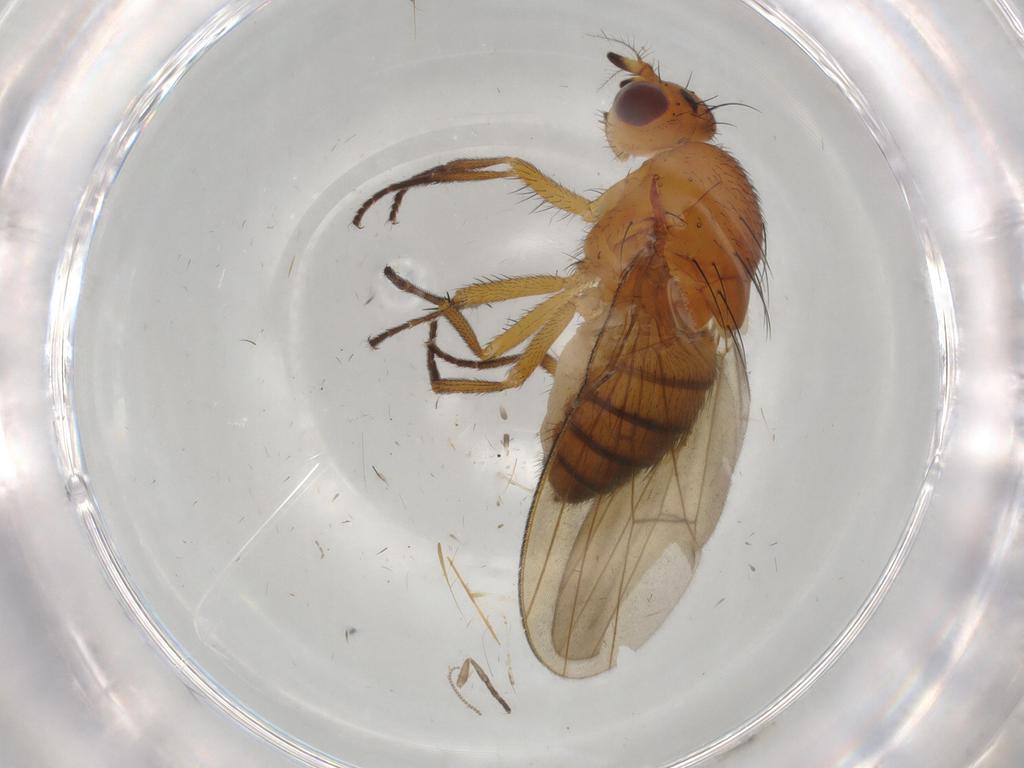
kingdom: Animalia
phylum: Arthropoda
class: Insecta
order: Diptera
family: Lauxaniidae
